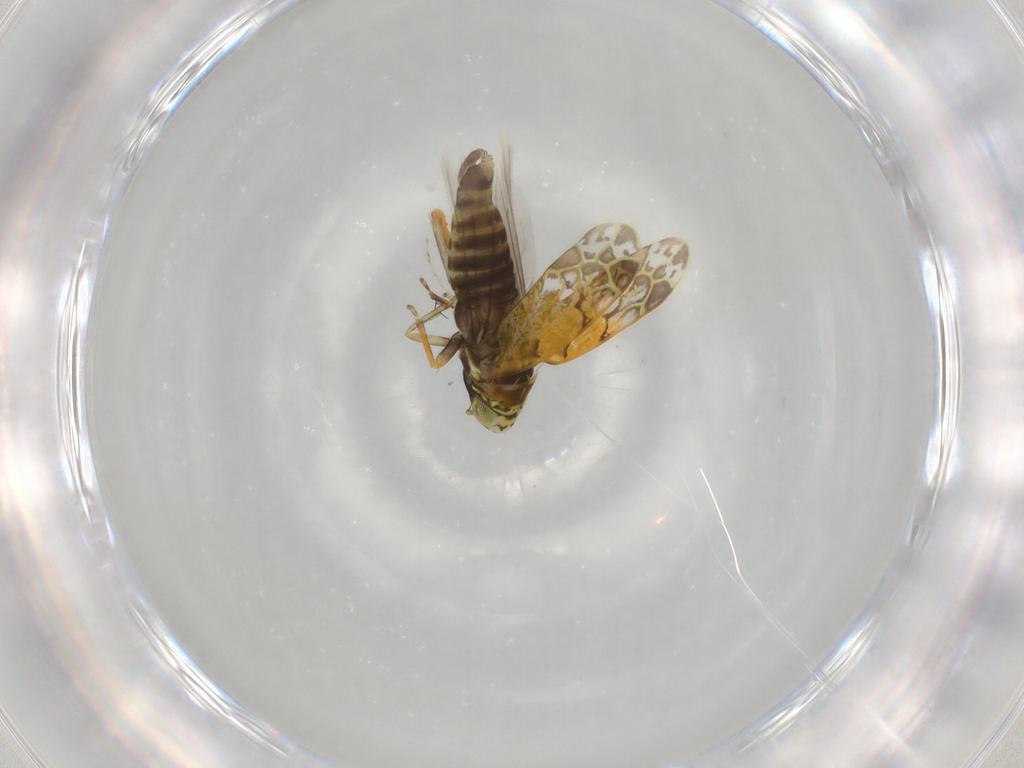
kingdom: Animalia
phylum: Arthropoda
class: Insecta
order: Hemiptera
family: Cicadellidae
